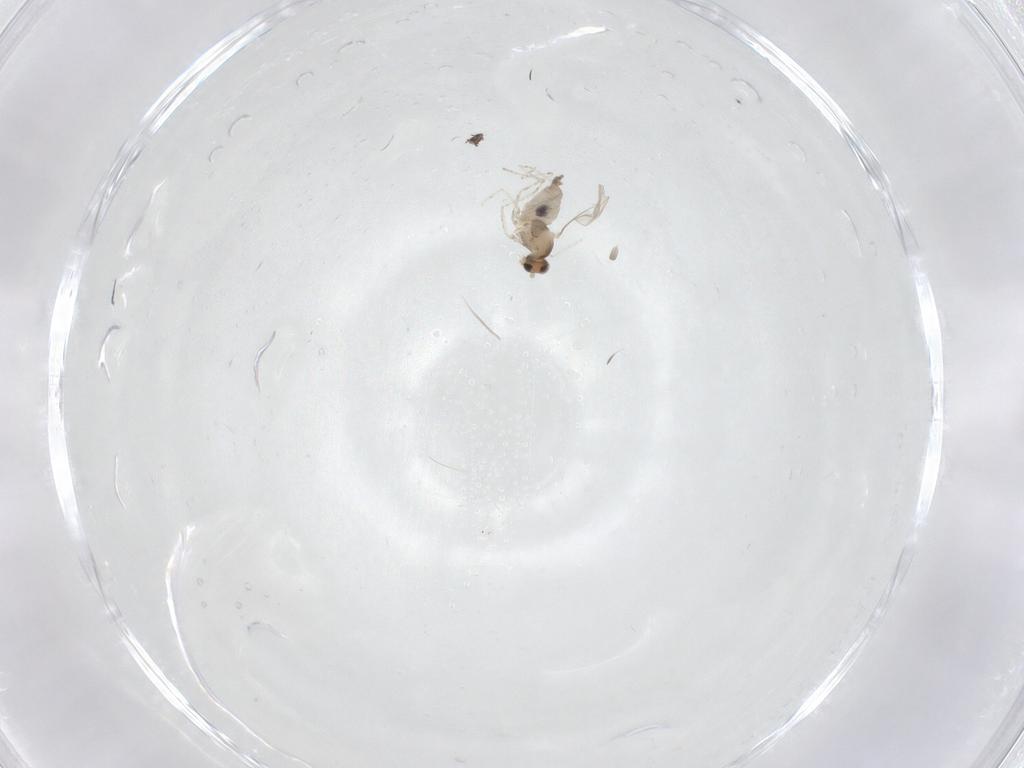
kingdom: Animalia
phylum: Arthropoda
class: Insecta
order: Diptera
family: Cecidomyiidae
